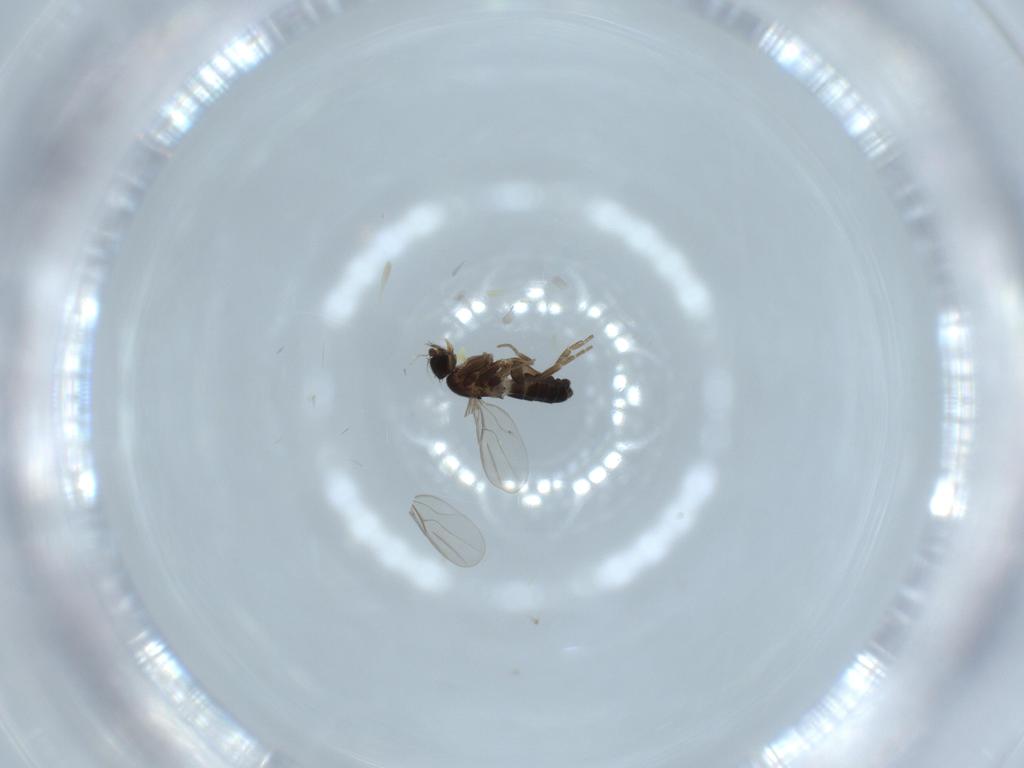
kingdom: Animalia
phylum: Arthropoda
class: Insecta
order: Diptera
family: Phoridae
